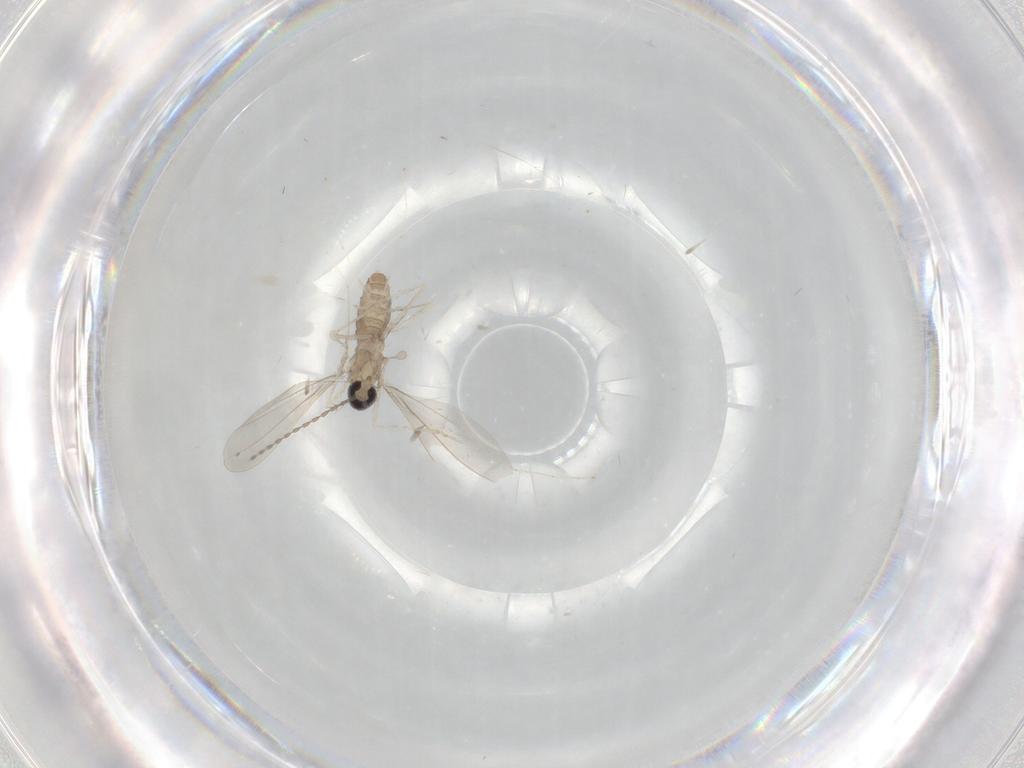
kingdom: Animalia
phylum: Arthropoda
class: Insecta
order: Diptera
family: Cecidomyiidae
